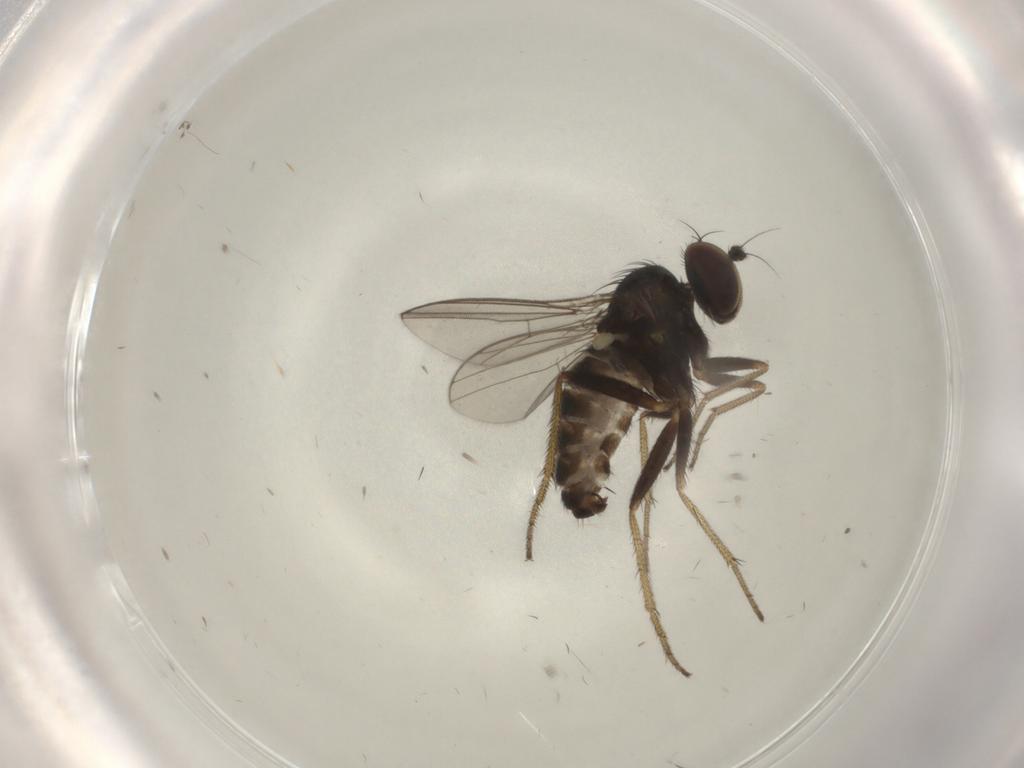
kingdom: Animalia
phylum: Arthropoda
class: Insecta
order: Diptera
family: Dolichopodidae
